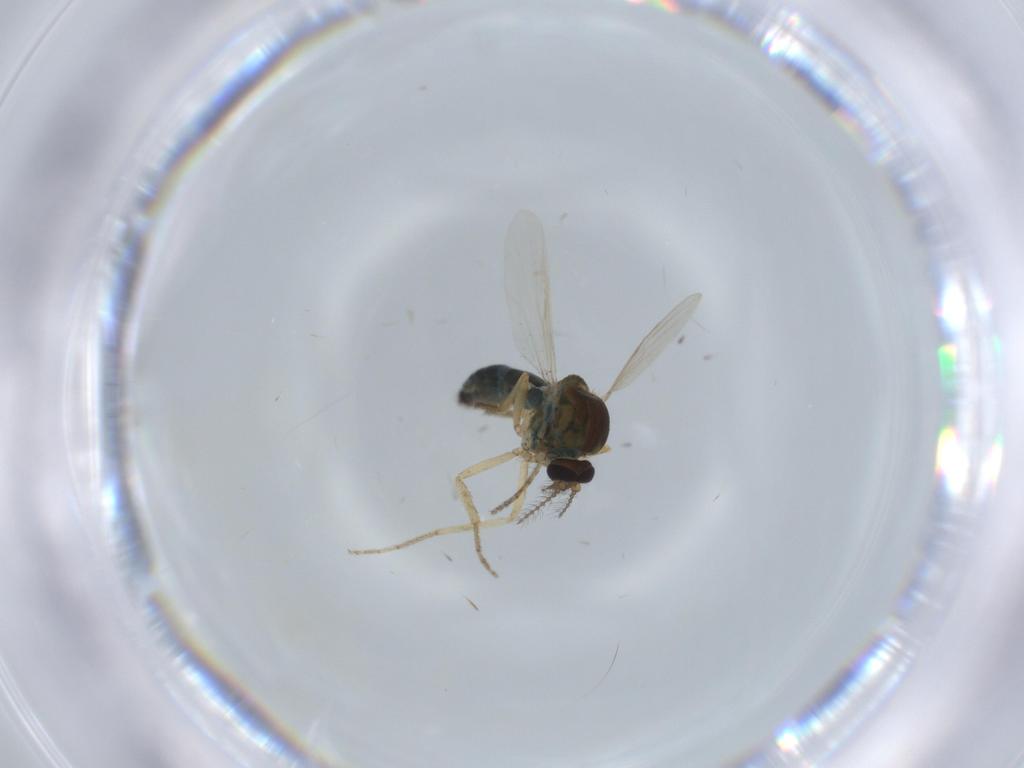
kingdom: Animalia
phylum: Arthropoda
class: Insecta
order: Diptera
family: Ceratopogonidae
